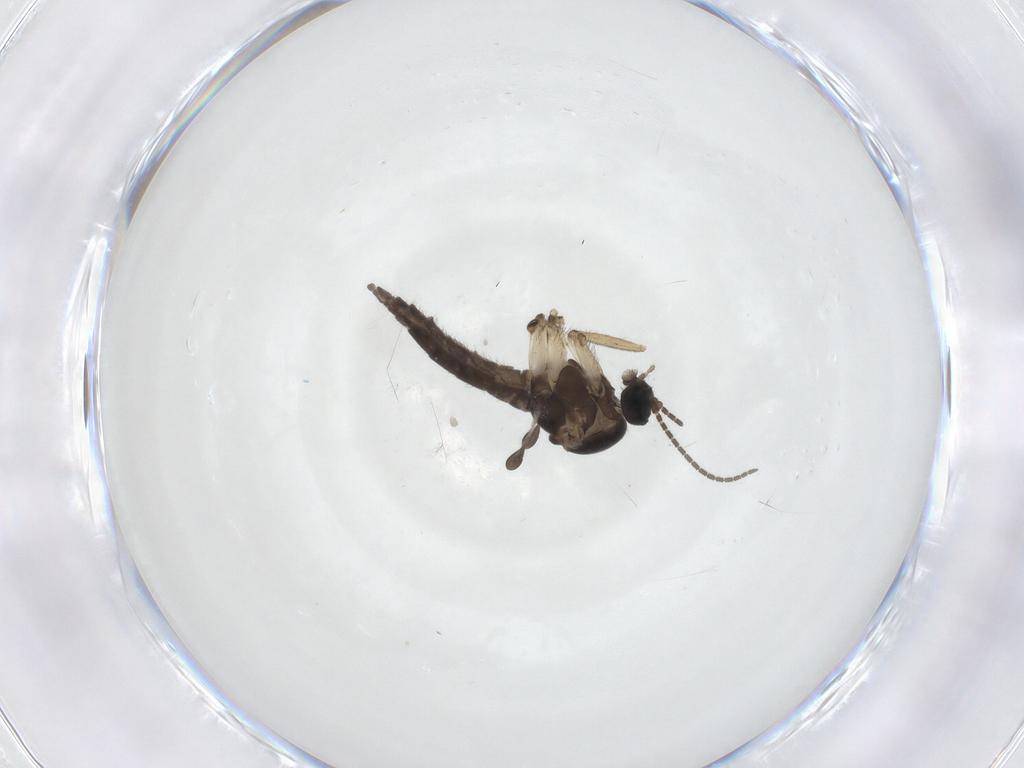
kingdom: Animalia
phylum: Arthropoda
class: Insecta
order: Diptera
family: Sciaridae
